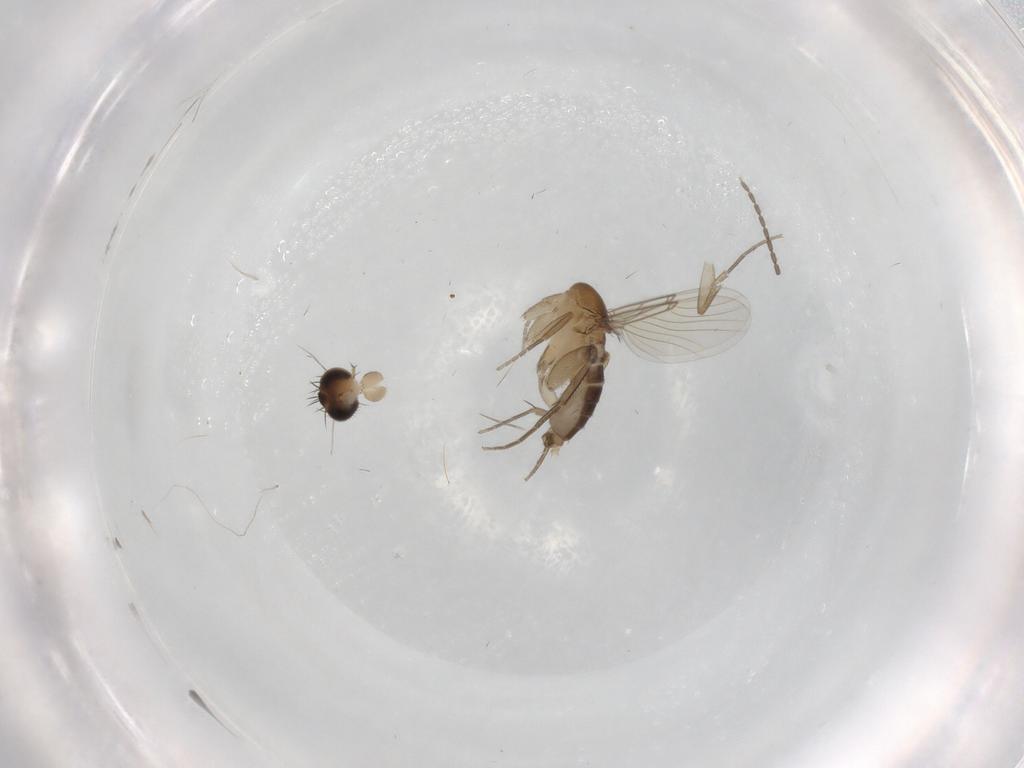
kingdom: Animalia
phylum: Arthropoda
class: Insecta
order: Diptera
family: Phoridae
